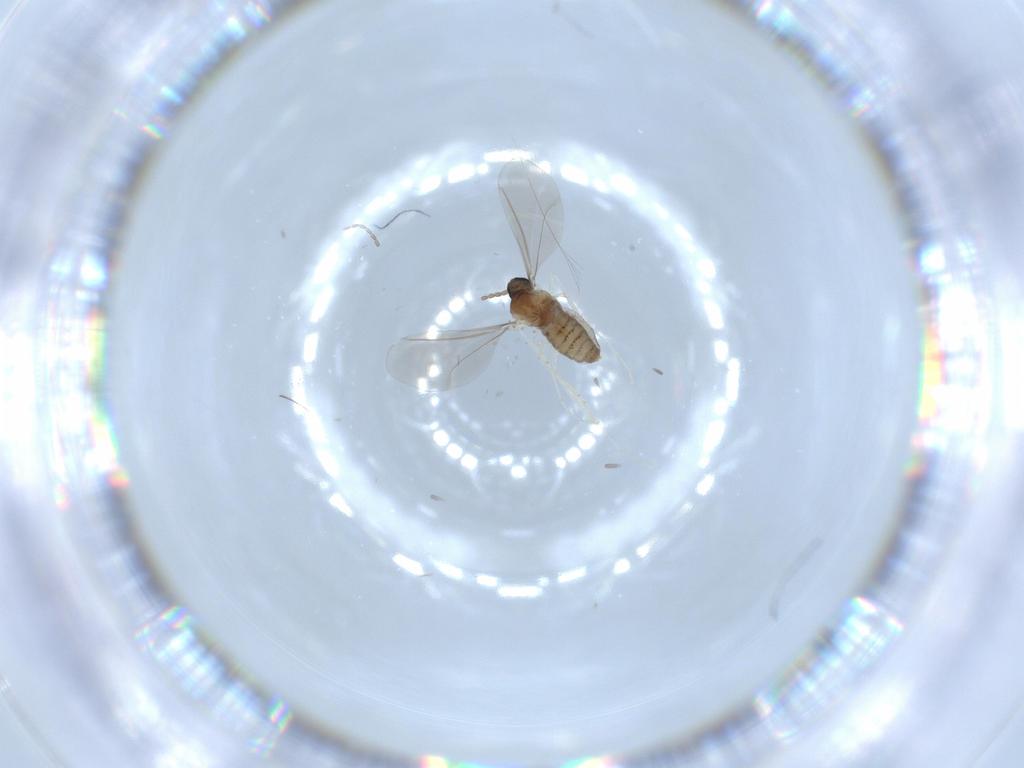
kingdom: Animalia
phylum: Arthropoda
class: Insecta
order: Diptera
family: Cecidomyiidae
